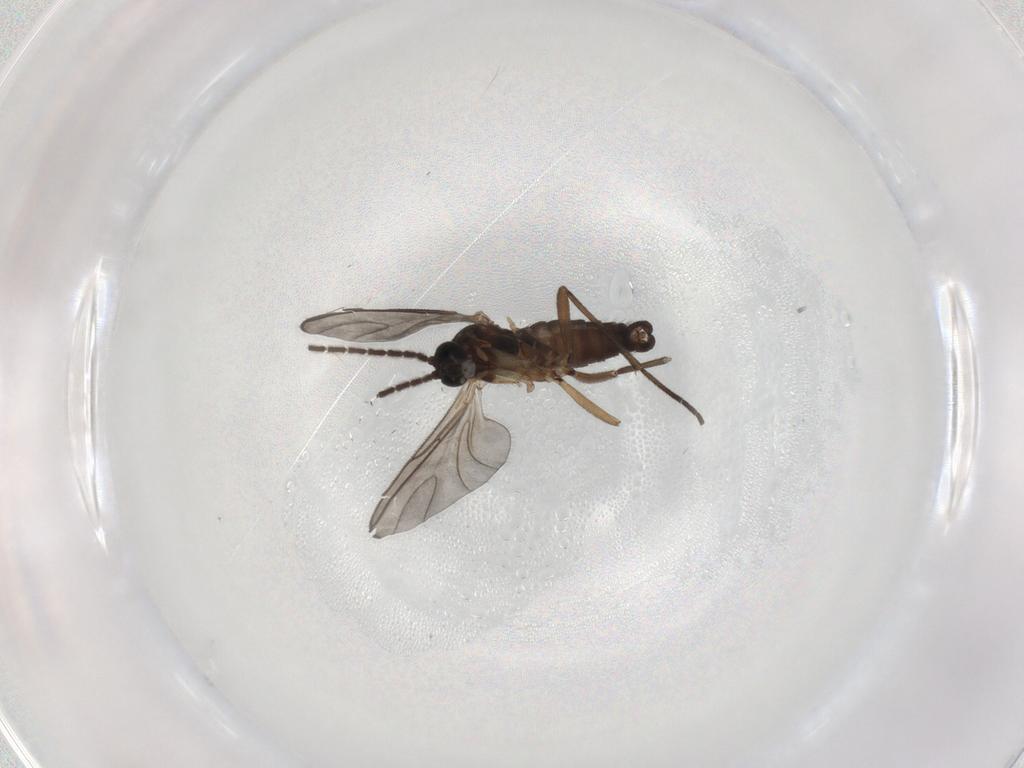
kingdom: Animalia
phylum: Arthropoda
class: Insecta
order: Diptera
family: Sciaridae
